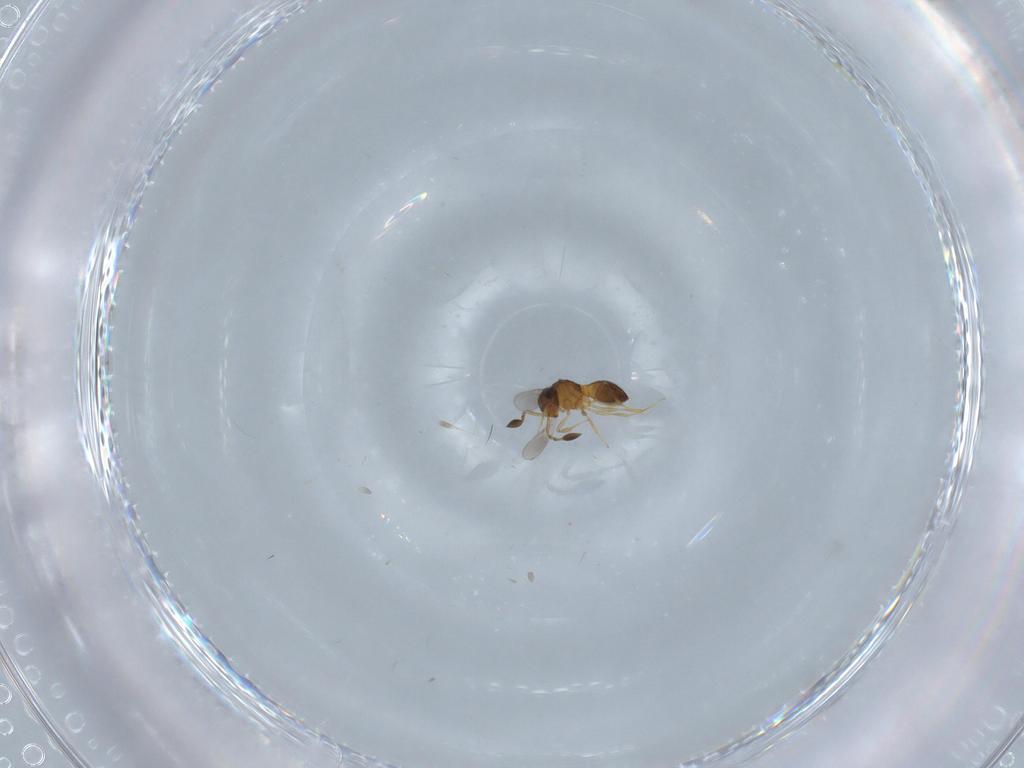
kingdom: Animalia
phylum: Arthropoda
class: Insecta
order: Hymenoptera
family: Scelionidae
